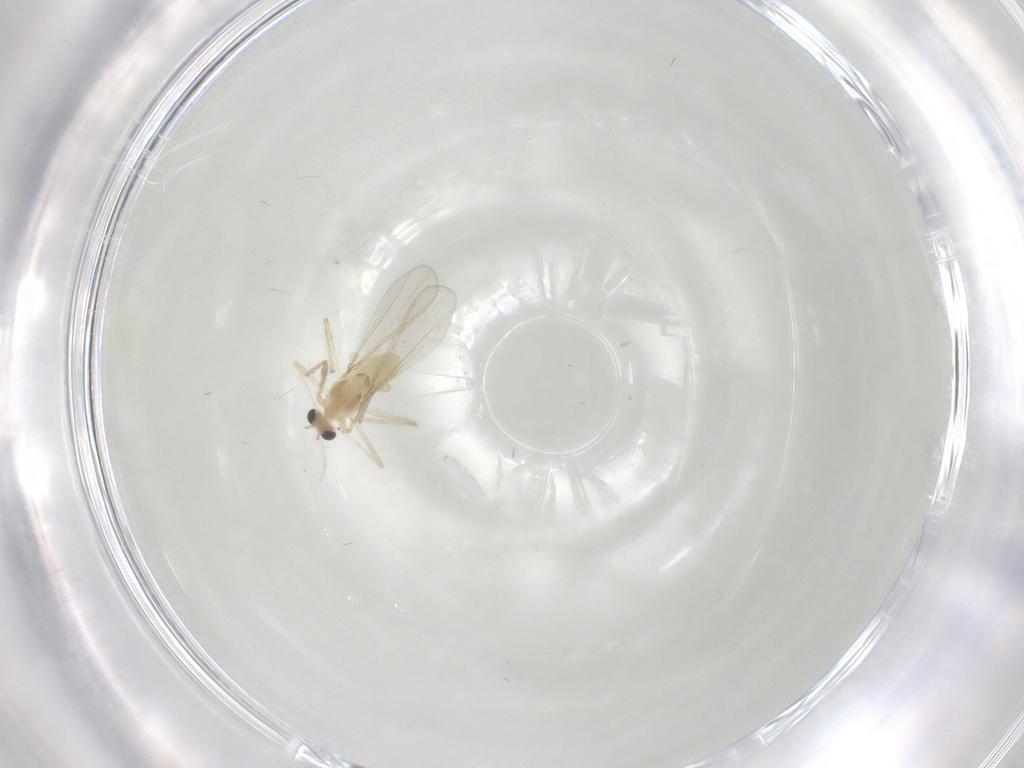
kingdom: Animalia
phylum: Arthropoda
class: Insecta
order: Diptera
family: Chironomidae
